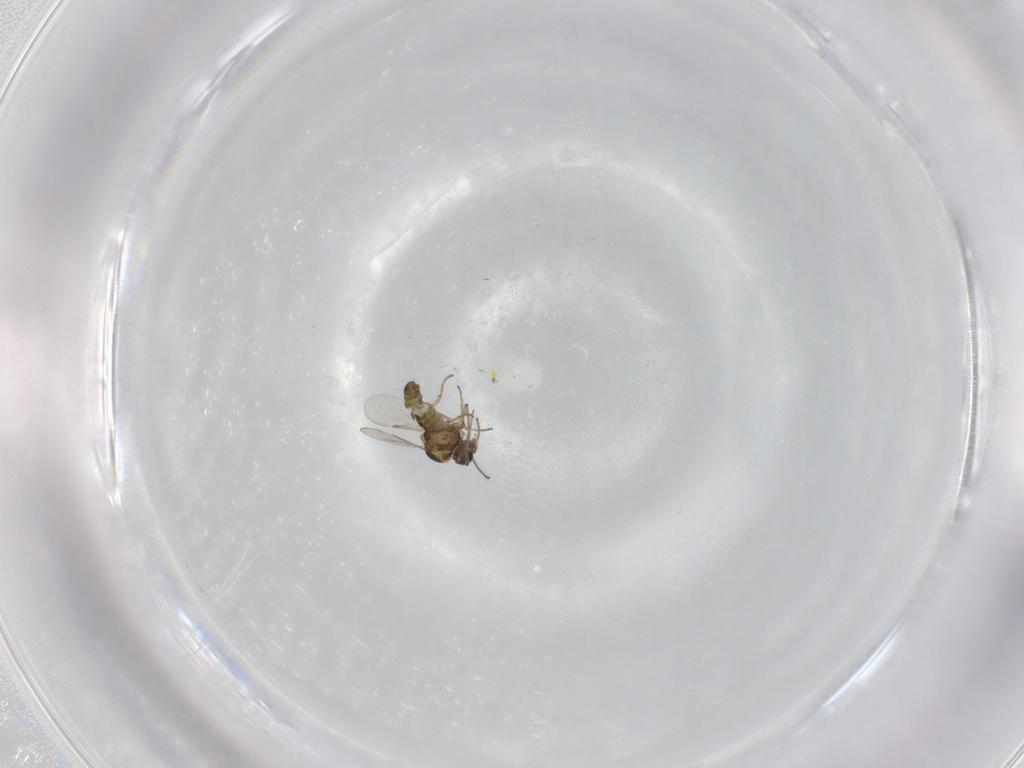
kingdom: Animalia
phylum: Arthropoda
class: Insecta
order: Diptera
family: Ceratopogonidae
